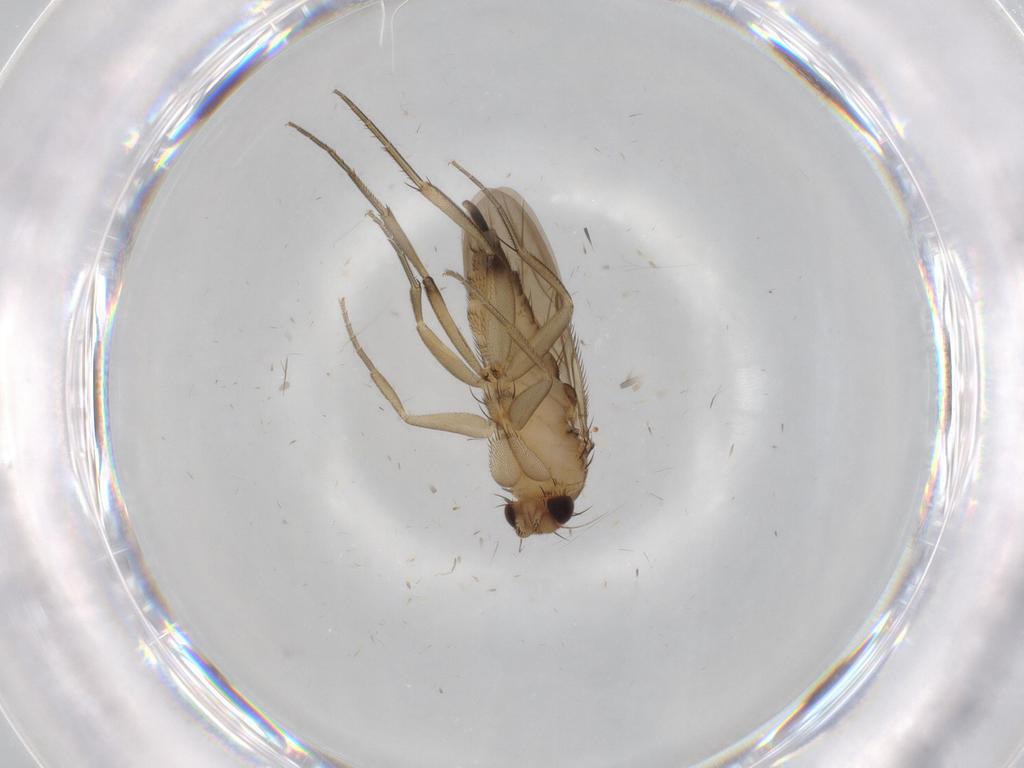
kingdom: Animalia
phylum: Arthropoda
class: Insecta
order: Diptera
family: Phoridae
